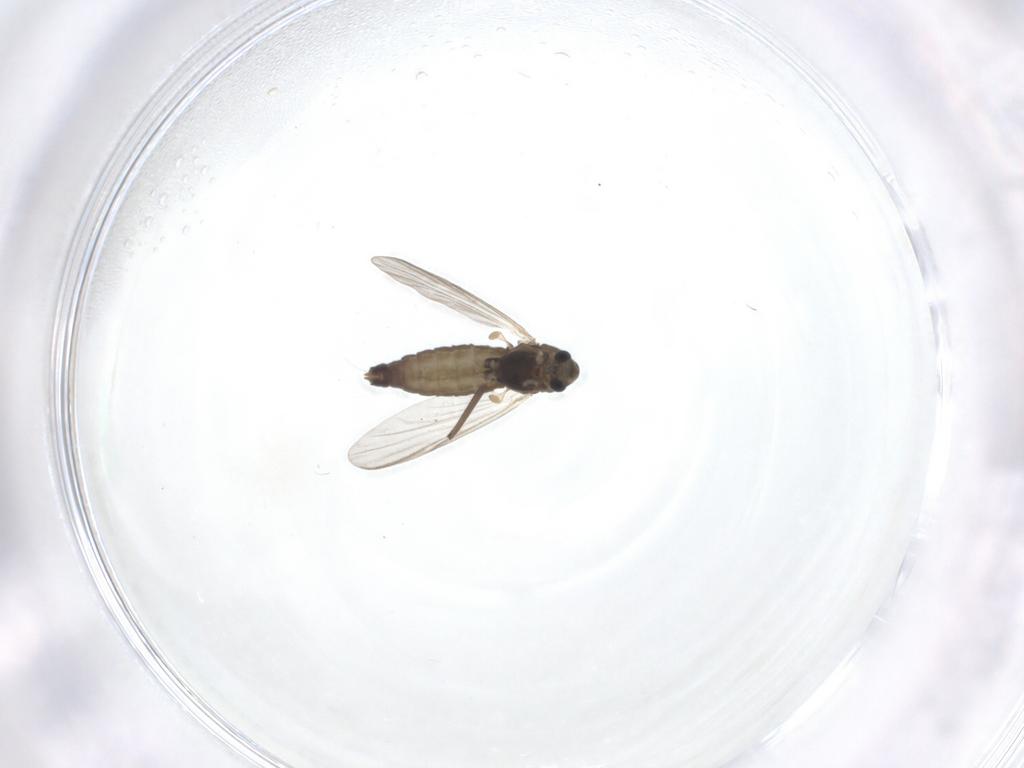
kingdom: Animalia
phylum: Arthropoda
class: Insecta
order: Diptera
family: Chironomidae
